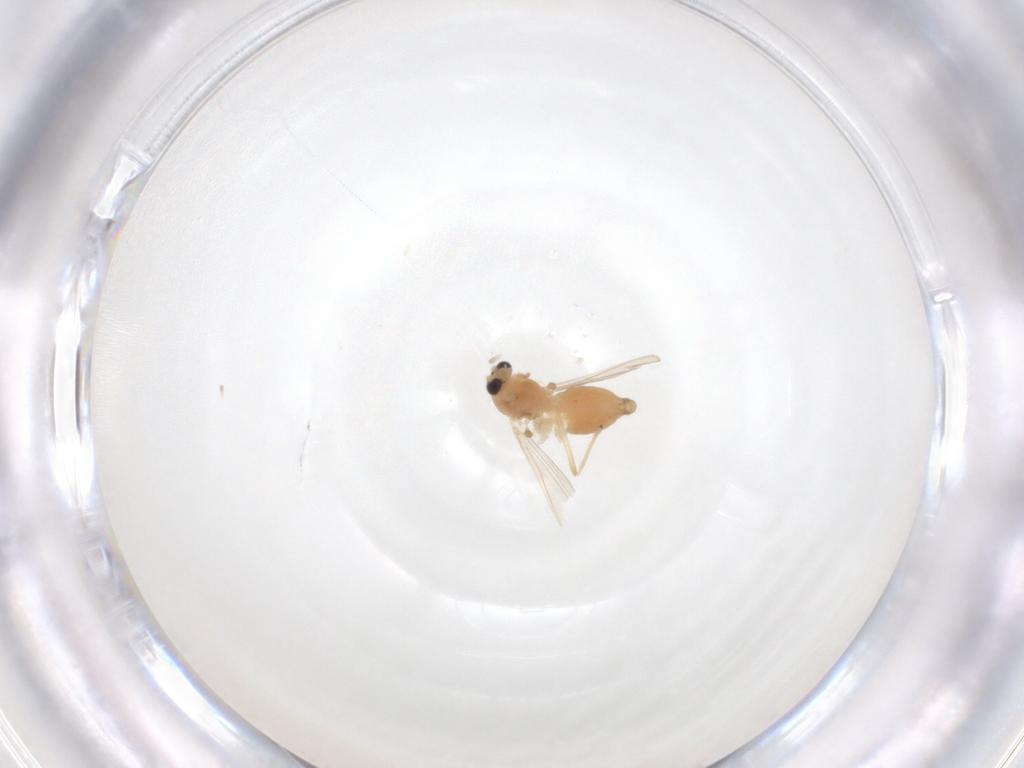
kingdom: Animalia
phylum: Arthropoda
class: Insecta
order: Diptera
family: Chironomidae
